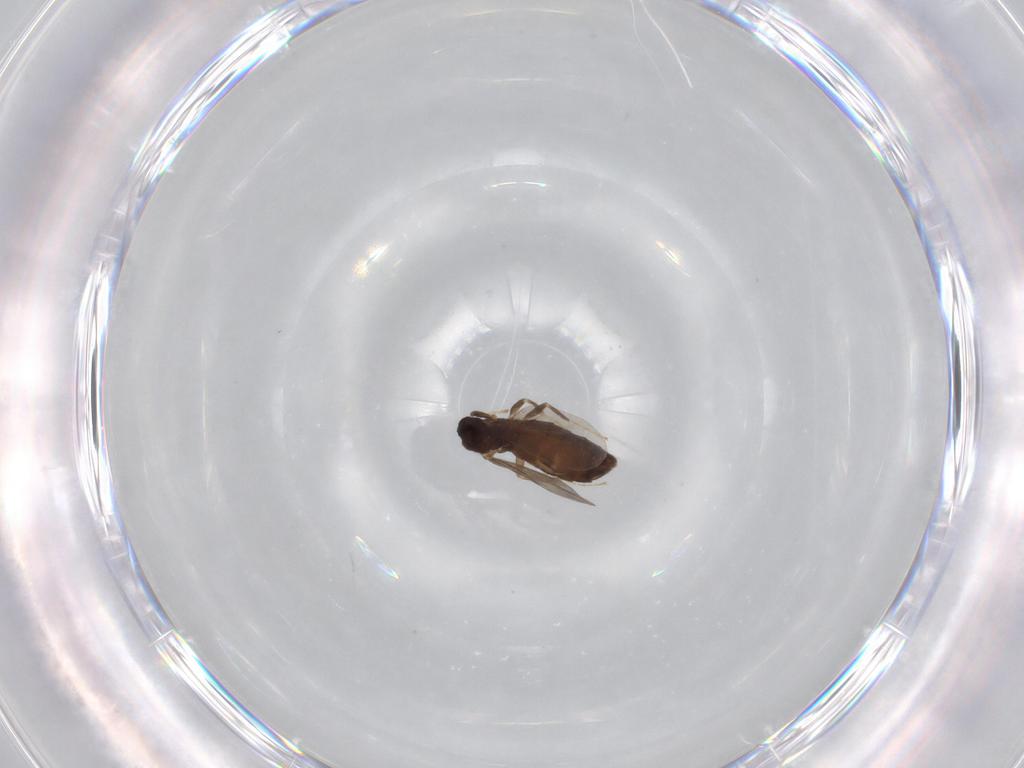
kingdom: Animalia
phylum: Arthropoda
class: Insecta
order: Diptera
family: Scatopsidae
